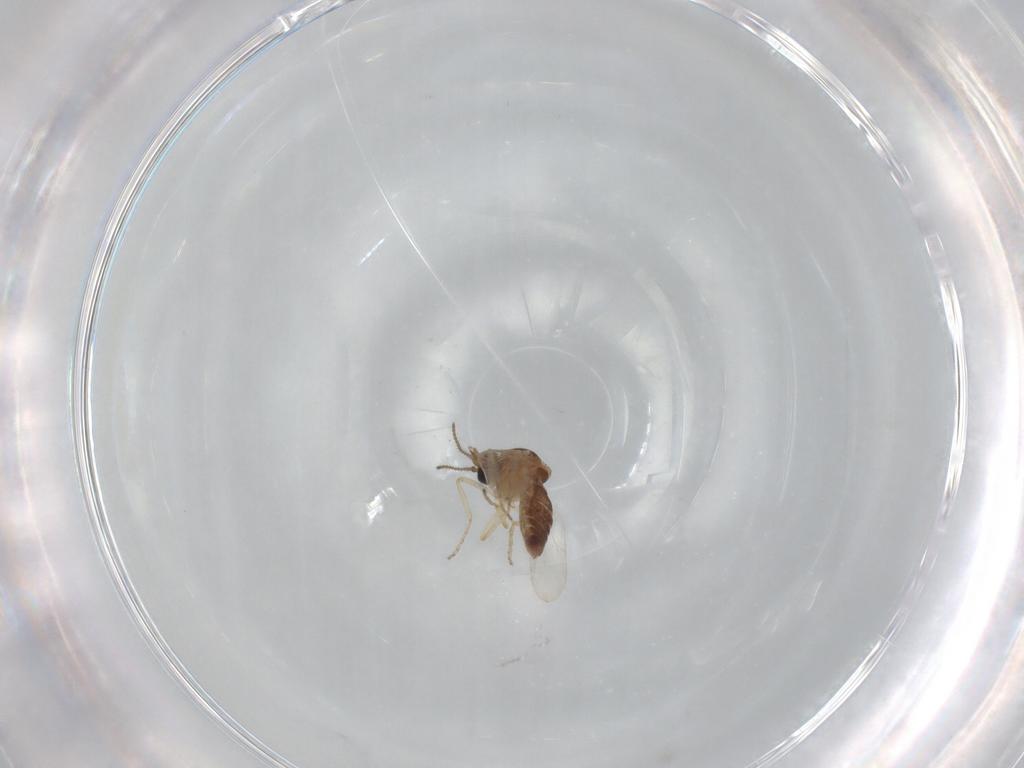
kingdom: Animalia
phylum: Arthropoda
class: Insecta
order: Diptera
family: Ceratopogonidae
